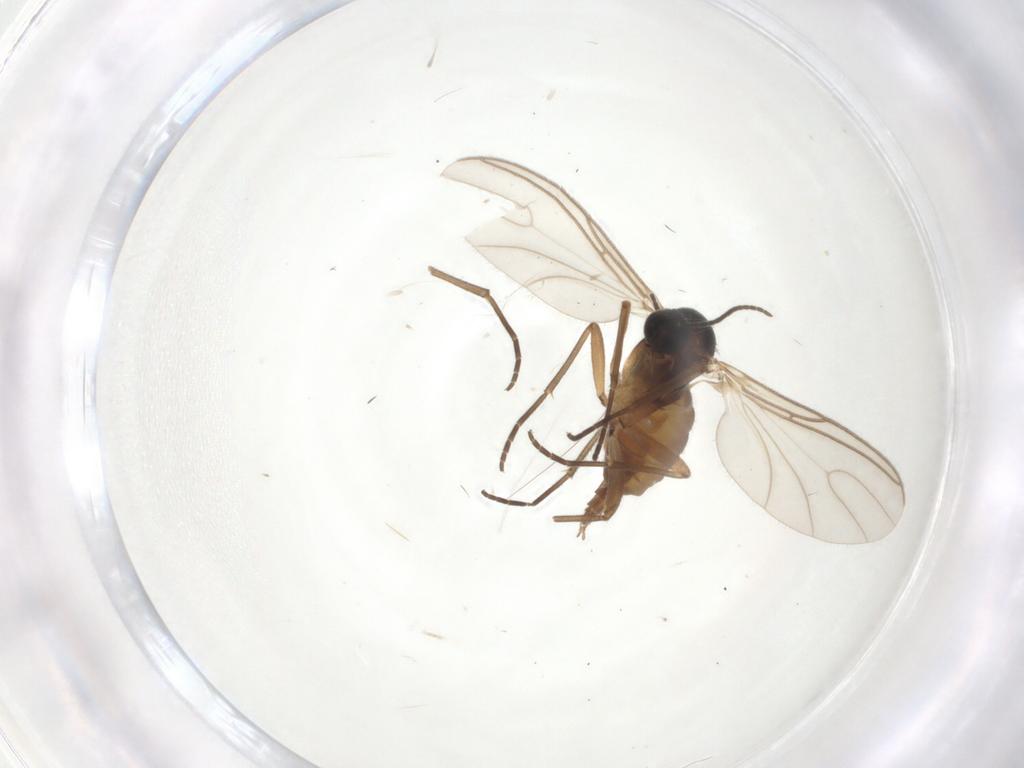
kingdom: Animalia
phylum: Arthropoda
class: Insecta
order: Diptera
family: Sciaridae
